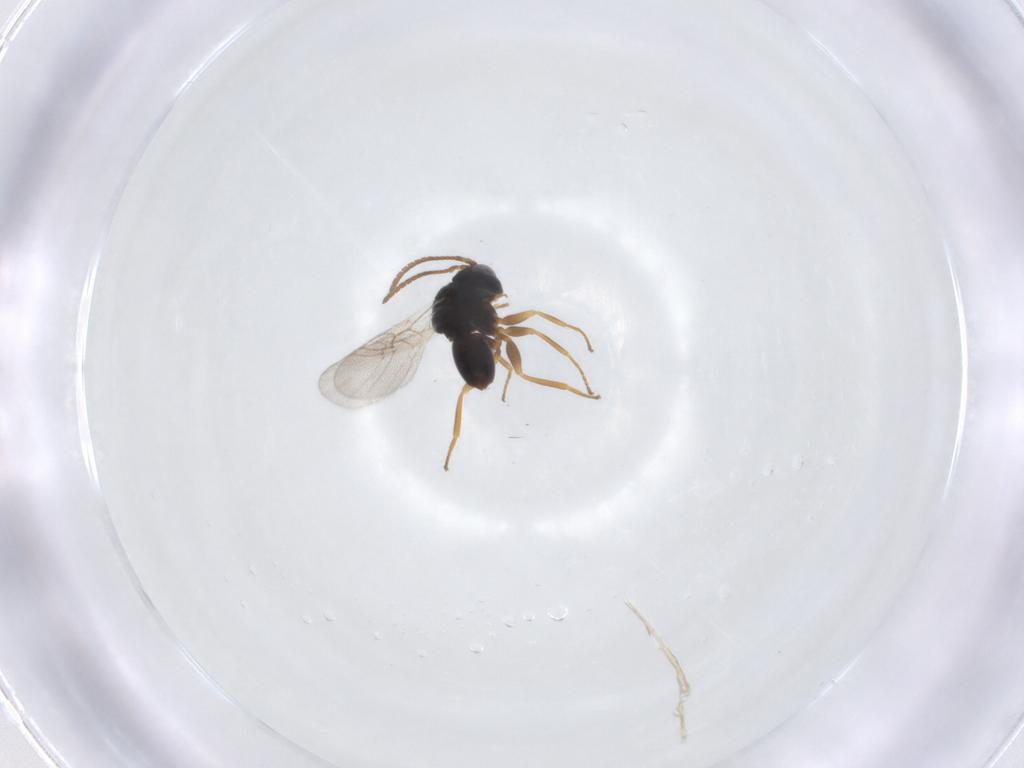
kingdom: Animalia
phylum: Arthropoda
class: Insecta
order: Hymenoptera
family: Cynipidae
